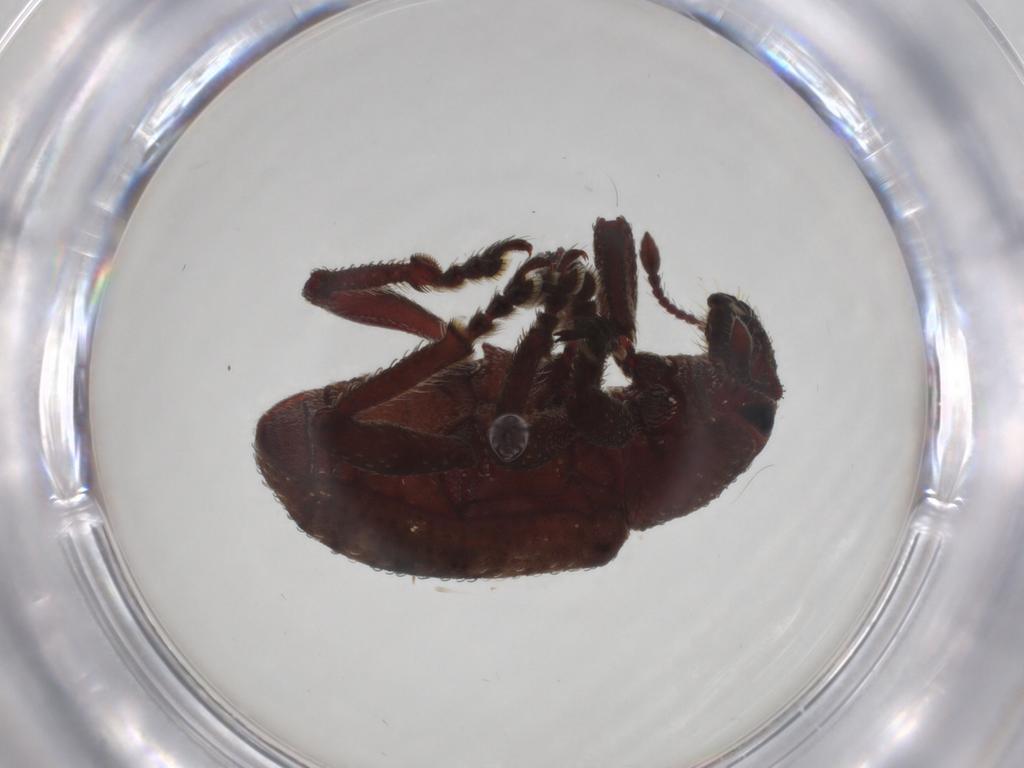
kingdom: Animalia
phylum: Arthropoda
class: Insecta
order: Coleoptera
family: Curculionidae
